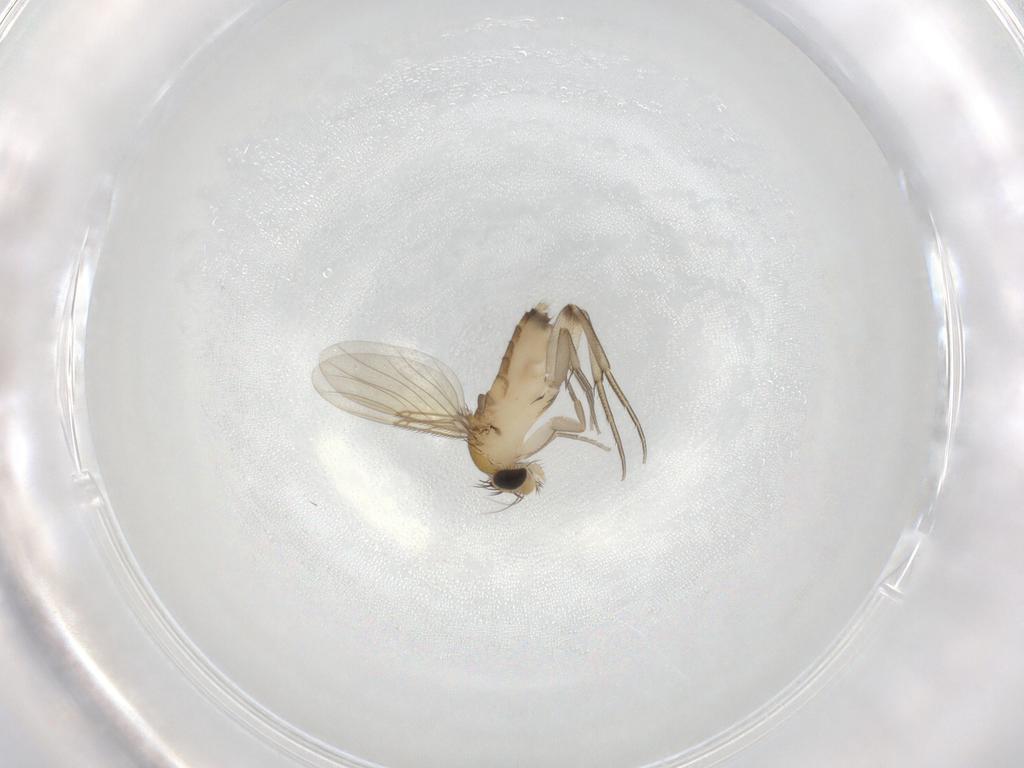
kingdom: Animalia
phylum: Arthropoda
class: Insecta
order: Diptera
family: Phoridae
